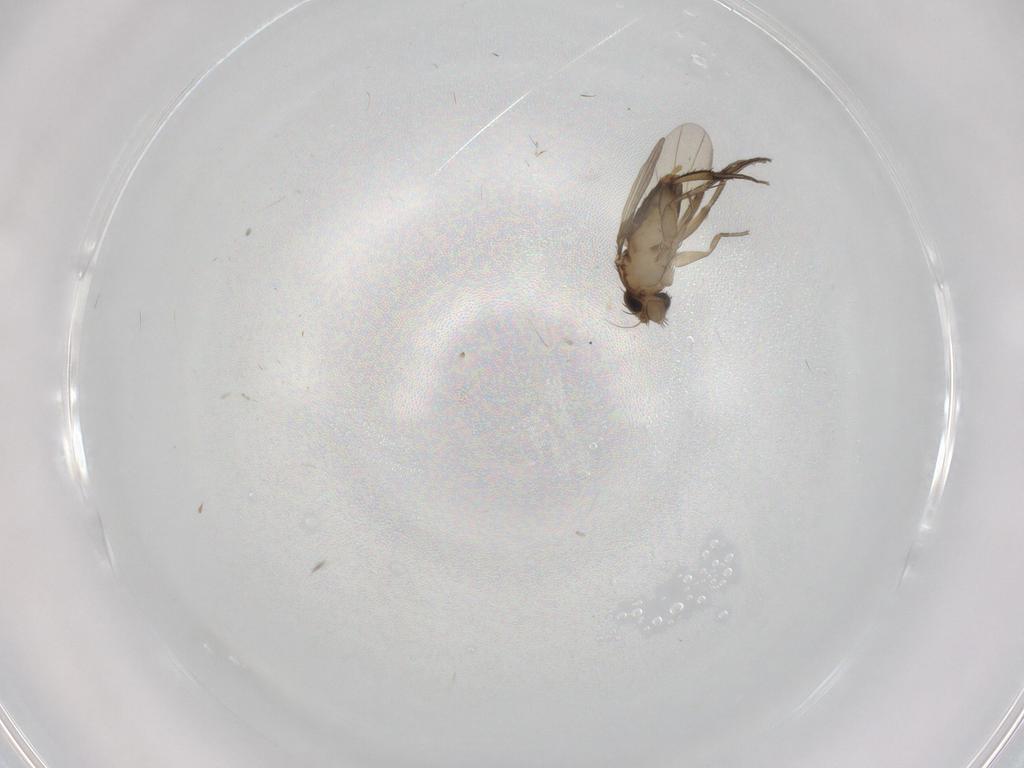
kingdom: Animalia
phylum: Arthropoda
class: Insecta
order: Diptera
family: Phoridae
